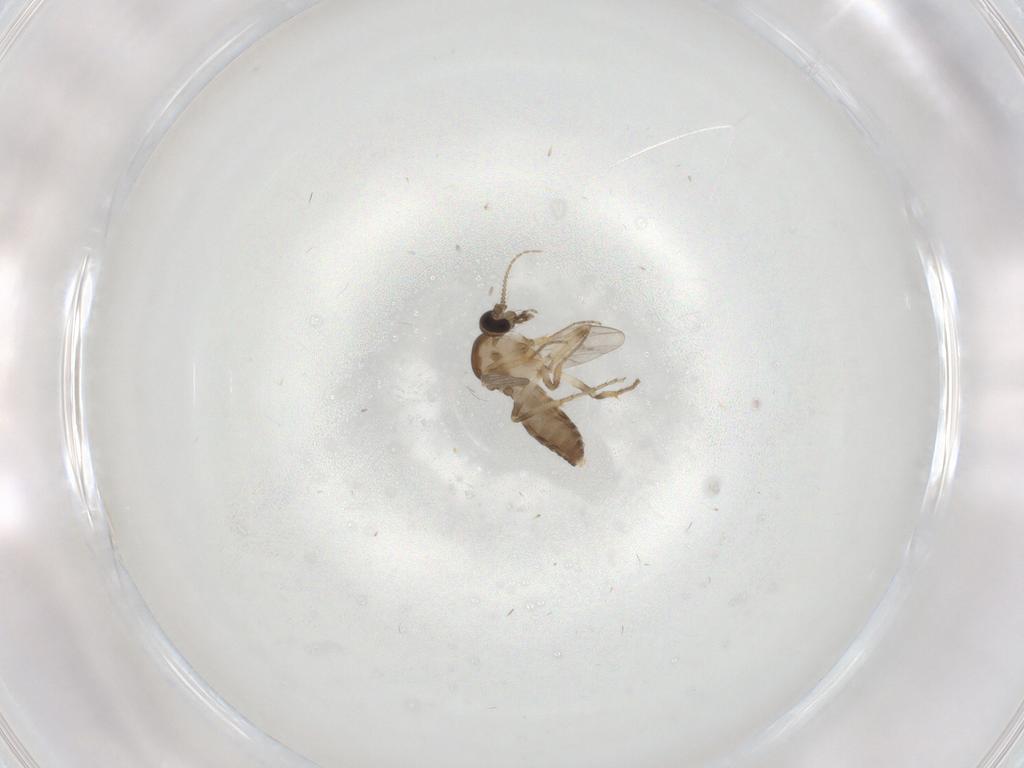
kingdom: Animalia
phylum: Arthropoda
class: Insecta
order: Diptera
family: Ceratopogonidae
